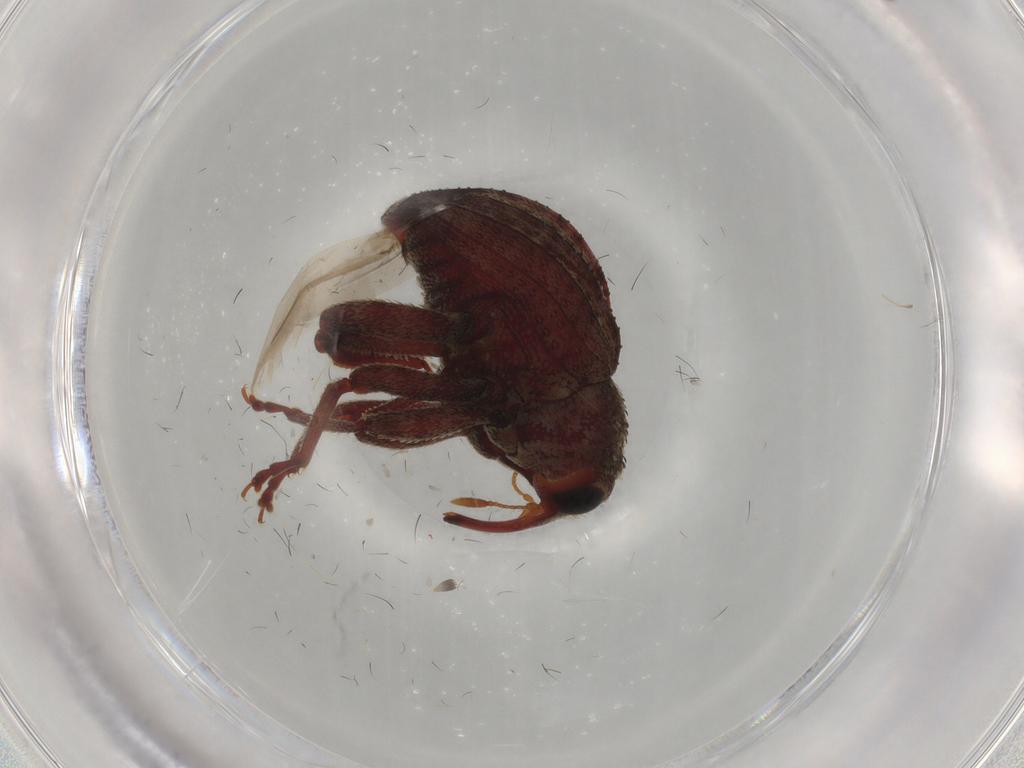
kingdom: Animalia
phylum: Arthropoda
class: Insecta
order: Coleoptera
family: Curculionidae
